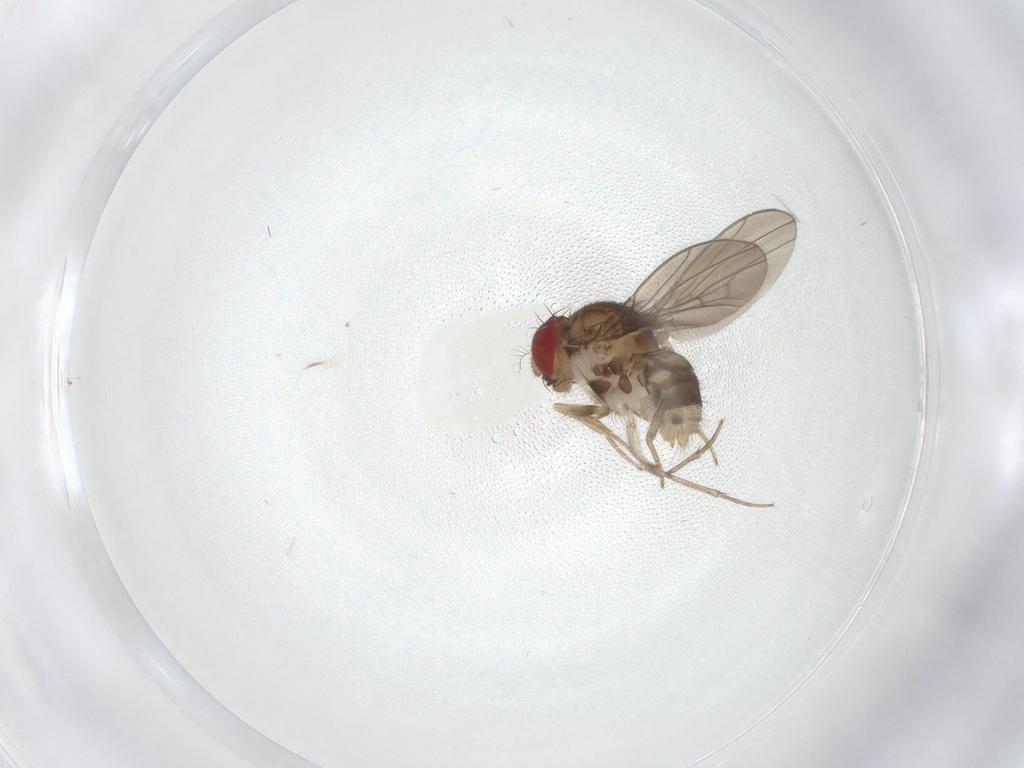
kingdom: Animalia
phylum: Arthropoda
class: Insecta
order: Diptera
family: Drosophilidae
